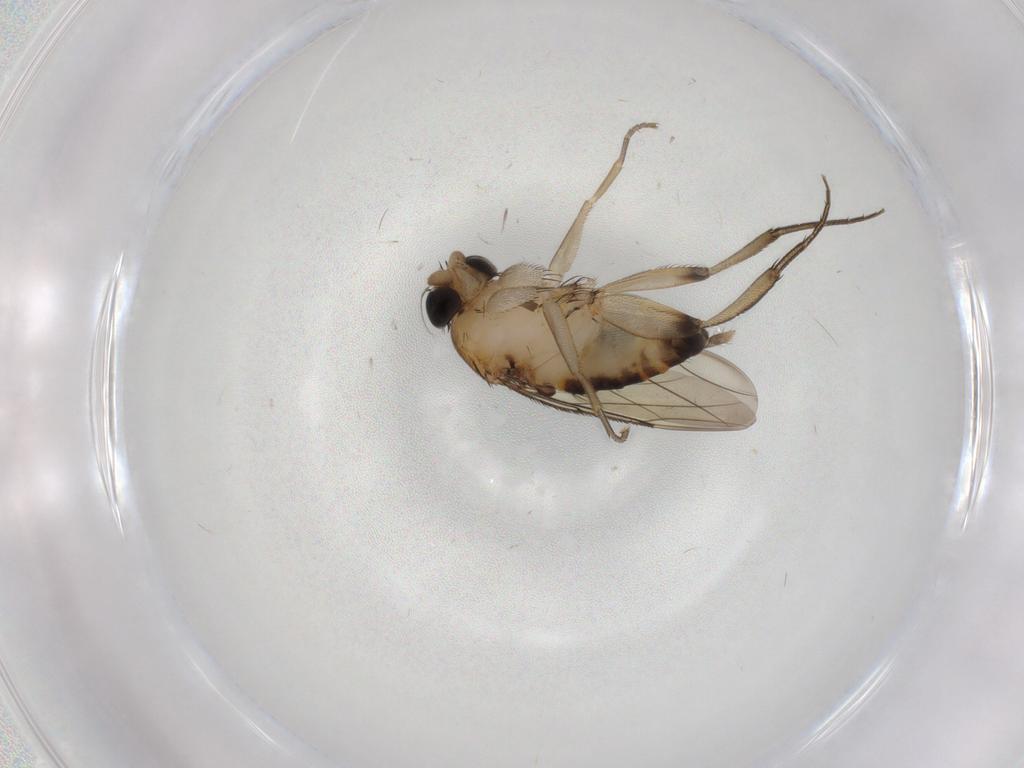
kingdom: Animalia
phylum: Arthropoda
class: Insecta
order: Diptera
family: Phoridae
